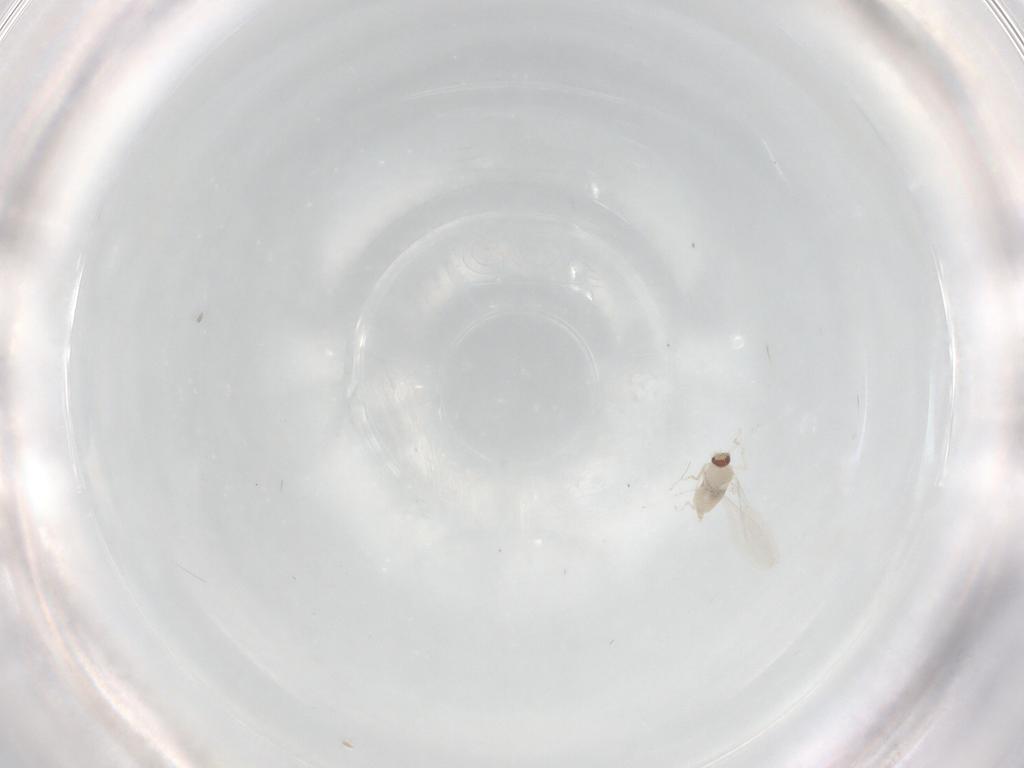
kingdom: Animalia
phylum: Arthropoda
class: Insecta
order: Diptera
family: Cecidomyiidae
